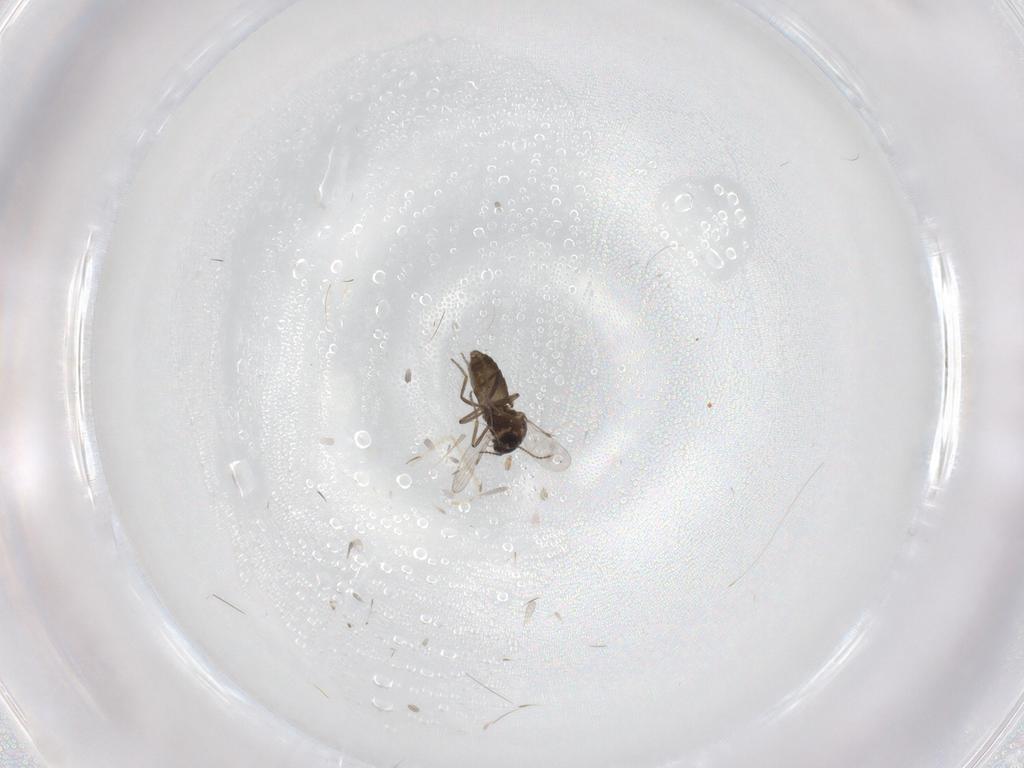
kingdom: Animalia
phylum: Arthropoda
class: Insecta
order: Diptera
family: Ceratopogonidae
